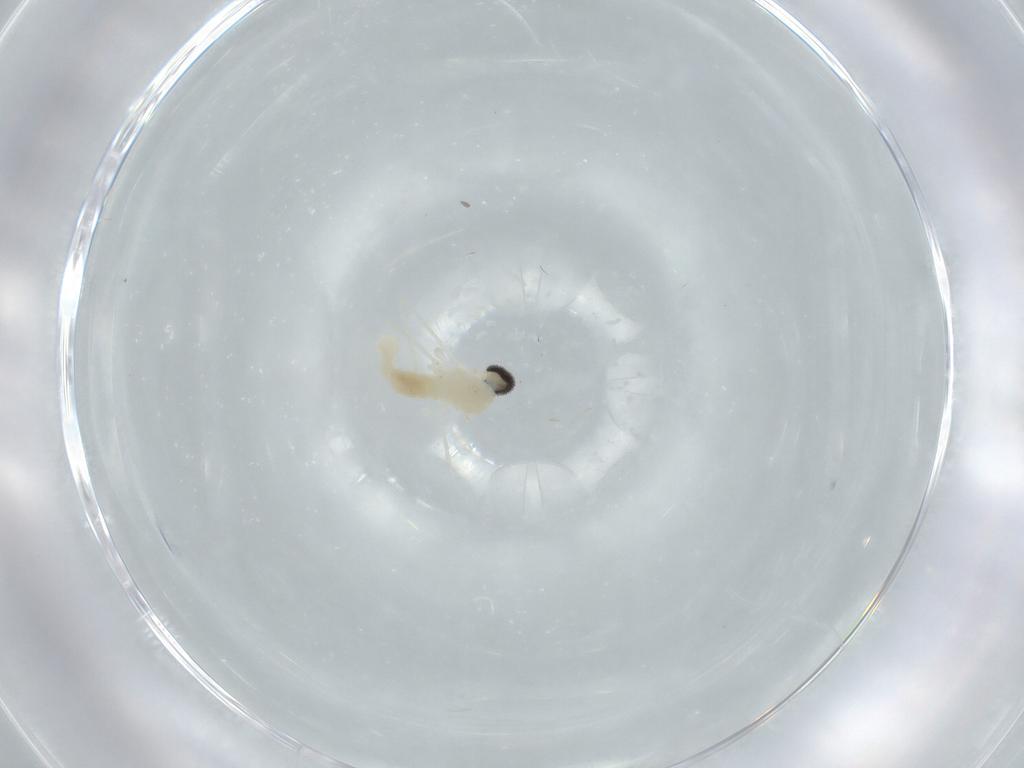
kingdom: Animalia
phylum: Arthropoda
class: Insecta
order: Diptera
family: Cecidomyiidae
